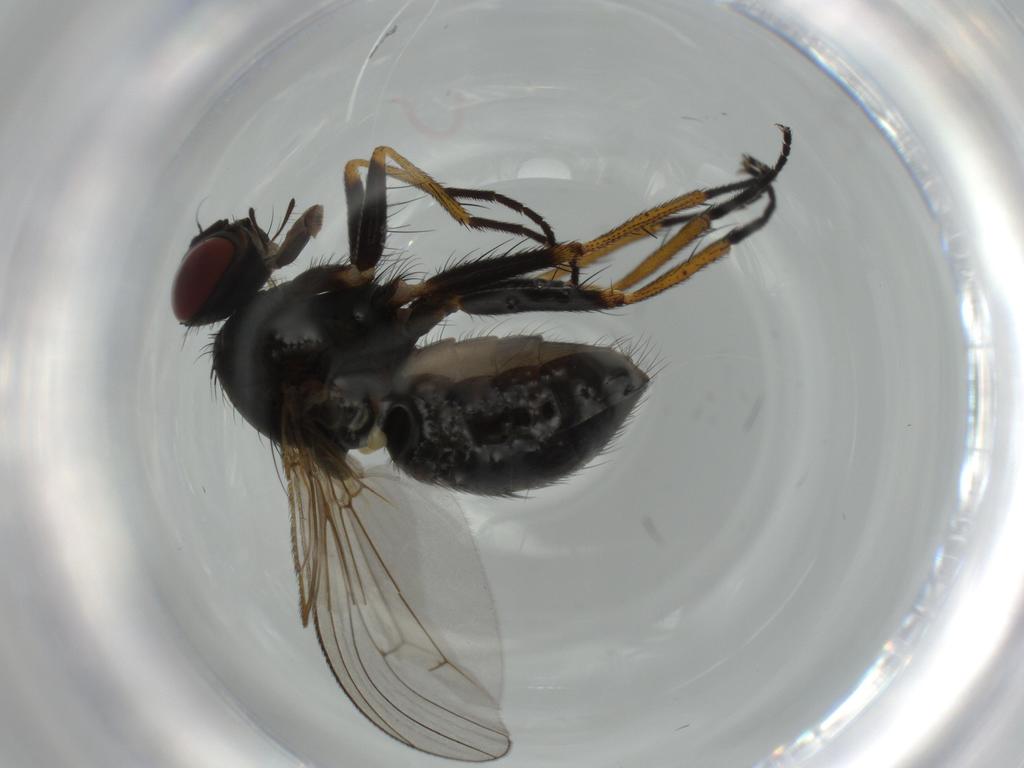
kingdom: Animalia
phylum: Arthropoda
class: Insecta
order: Diptera
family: Muscidae
